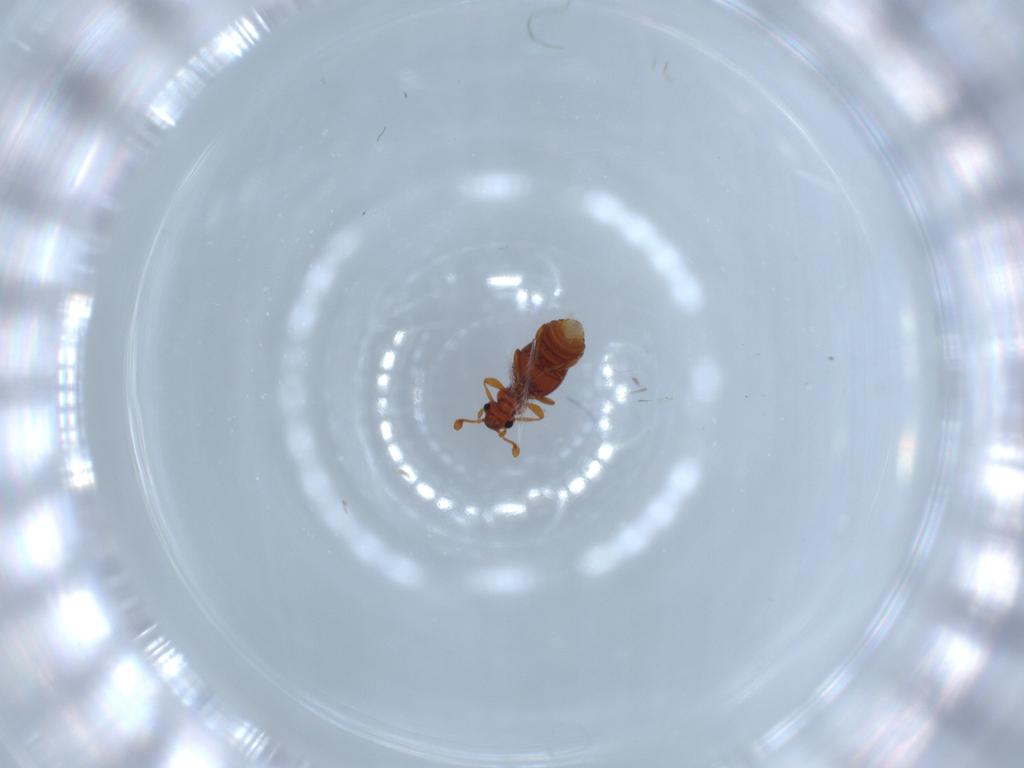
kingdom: Animalia
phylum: Arthropoda
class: Insecta
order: Coleoptera
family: Staphylinidae
